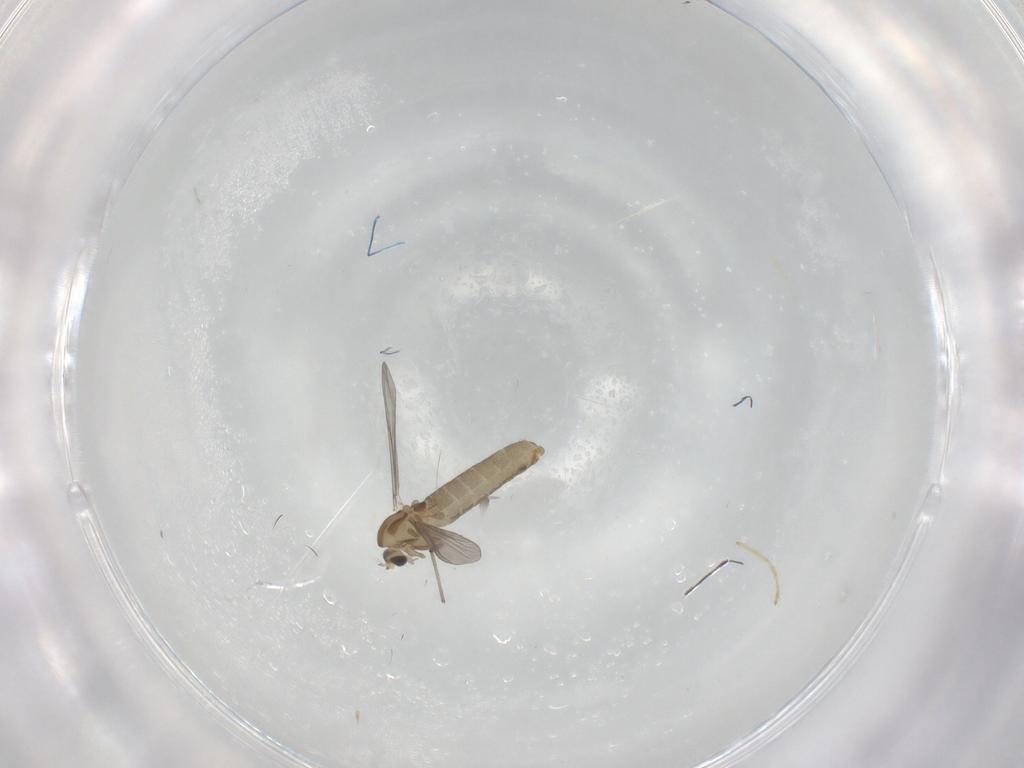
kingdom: Animalia
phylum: Arthropoda
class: Insecta
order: Diptera
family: Chironomidae
